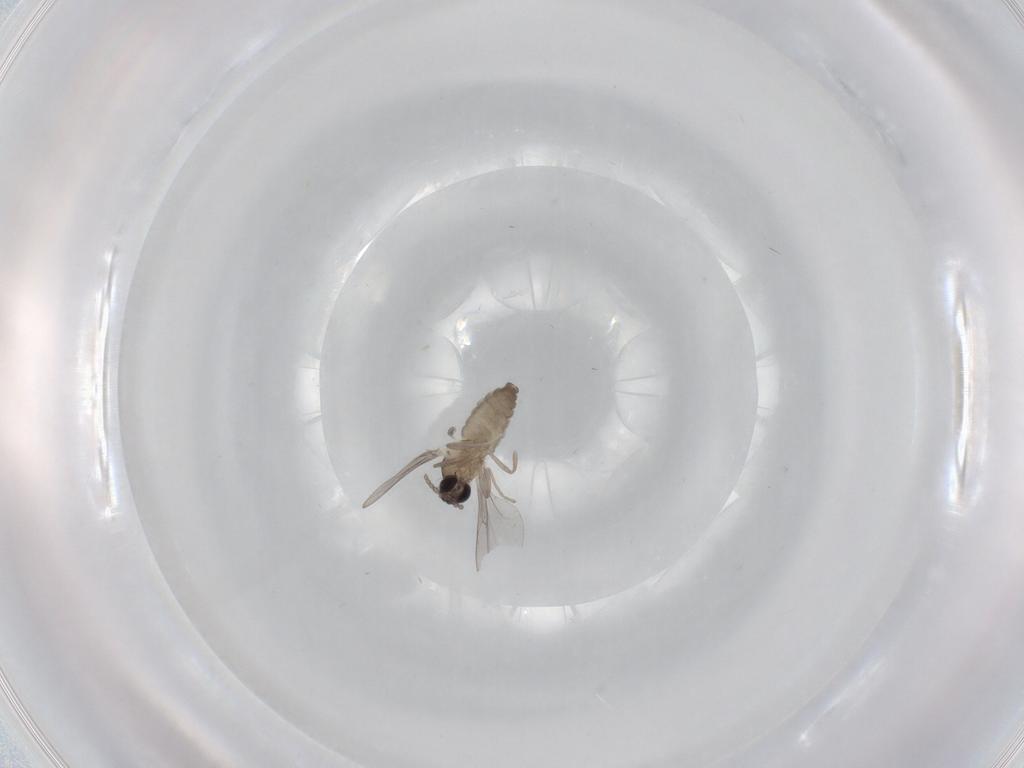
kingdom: Animalia
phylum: Arthropoda
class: Insecta
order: Diptera
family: Cecidomyiidae
